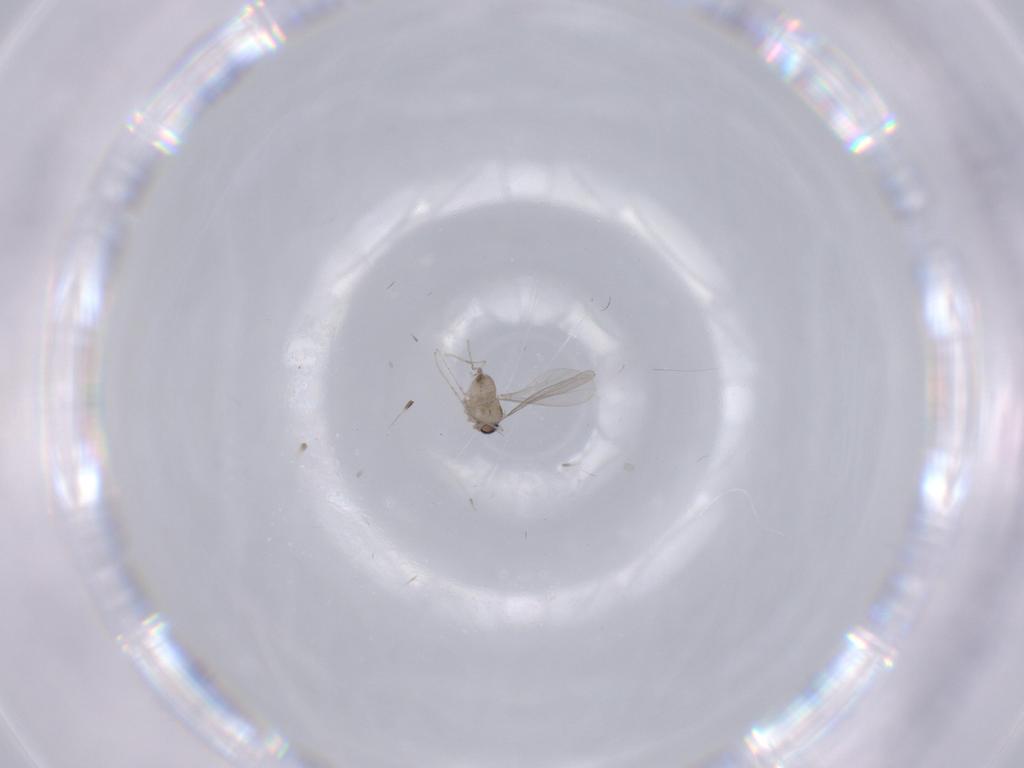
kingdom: Animalia
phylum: Arthropoda
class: Insecta
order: Diptera
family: Cecidomyiidae
